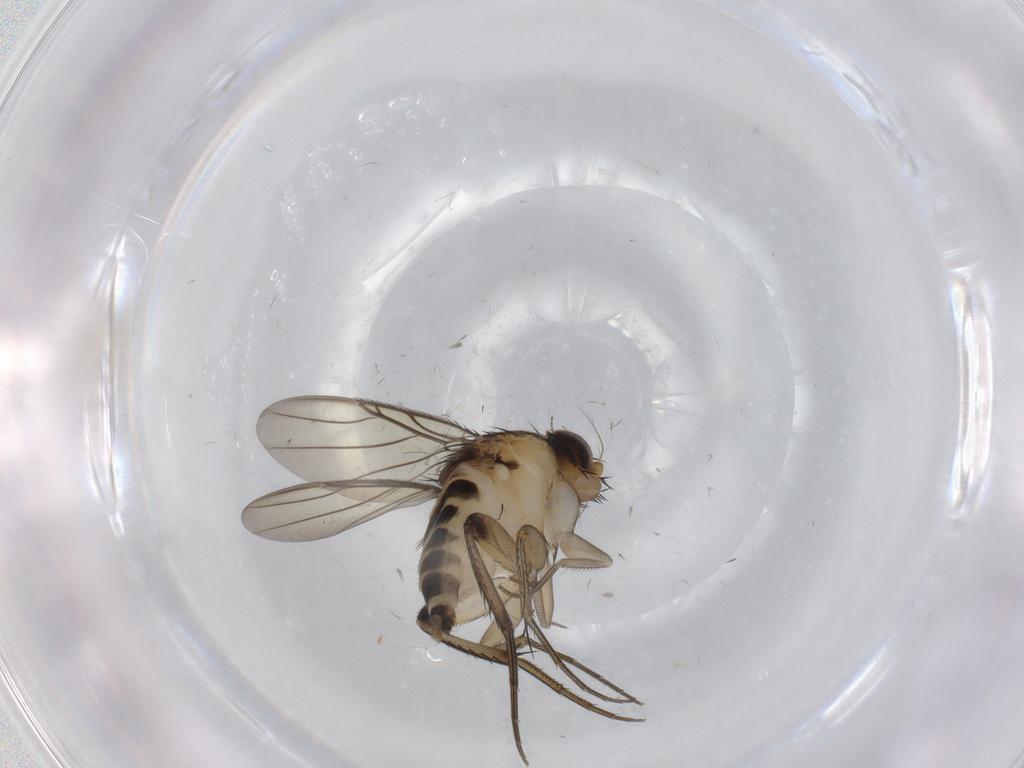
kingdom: Animalia
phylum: Arthropoda
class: Insecta
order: Diptera
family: Cecidomyiidae
